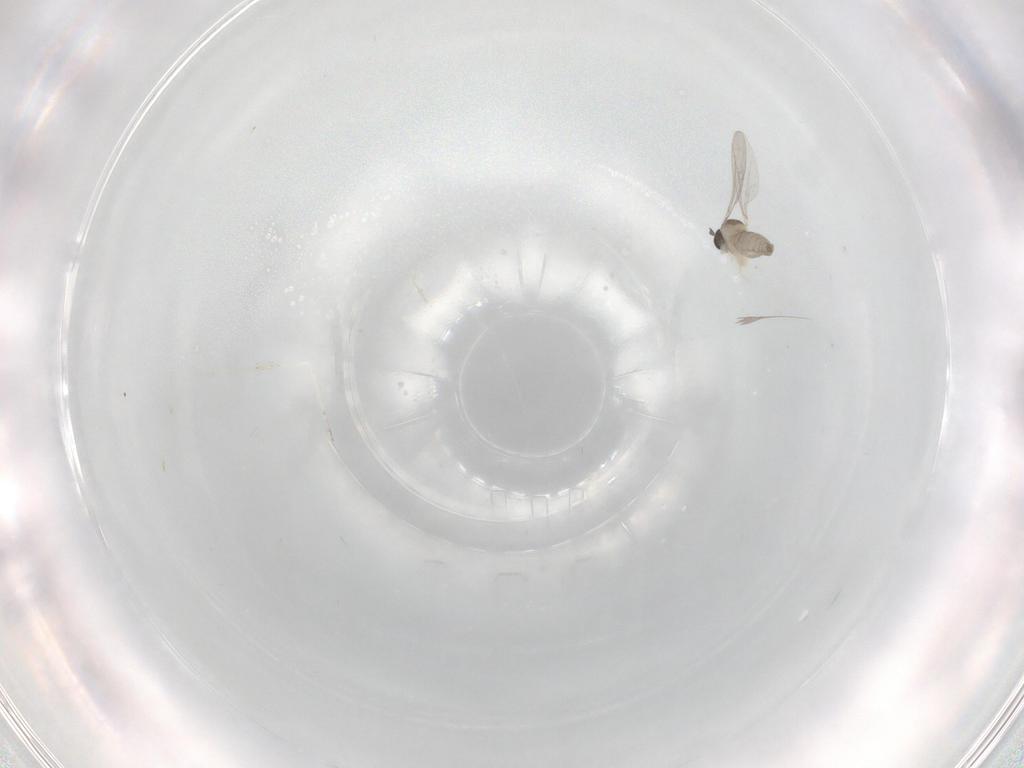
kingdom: Animalia
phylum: Arthropoda
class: Insecta
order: Diptera
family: Cecidomyiidae
